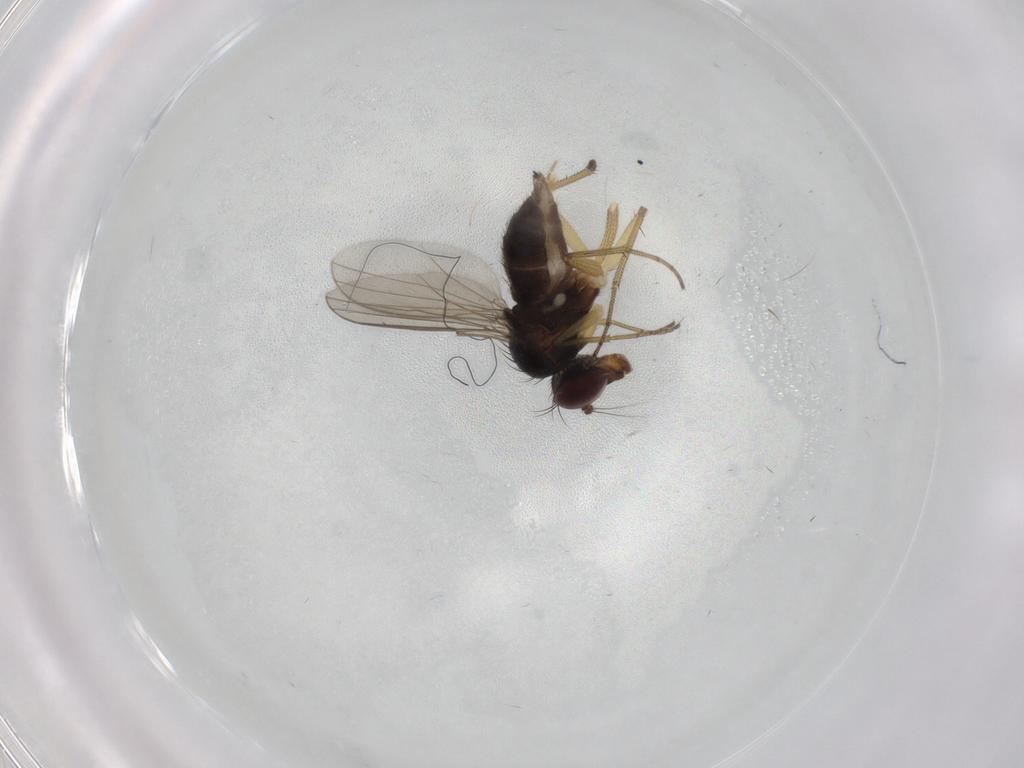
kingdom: Animalia
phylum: Arthropoda
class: Insecta
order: Diptera
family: Dolichopodidae
